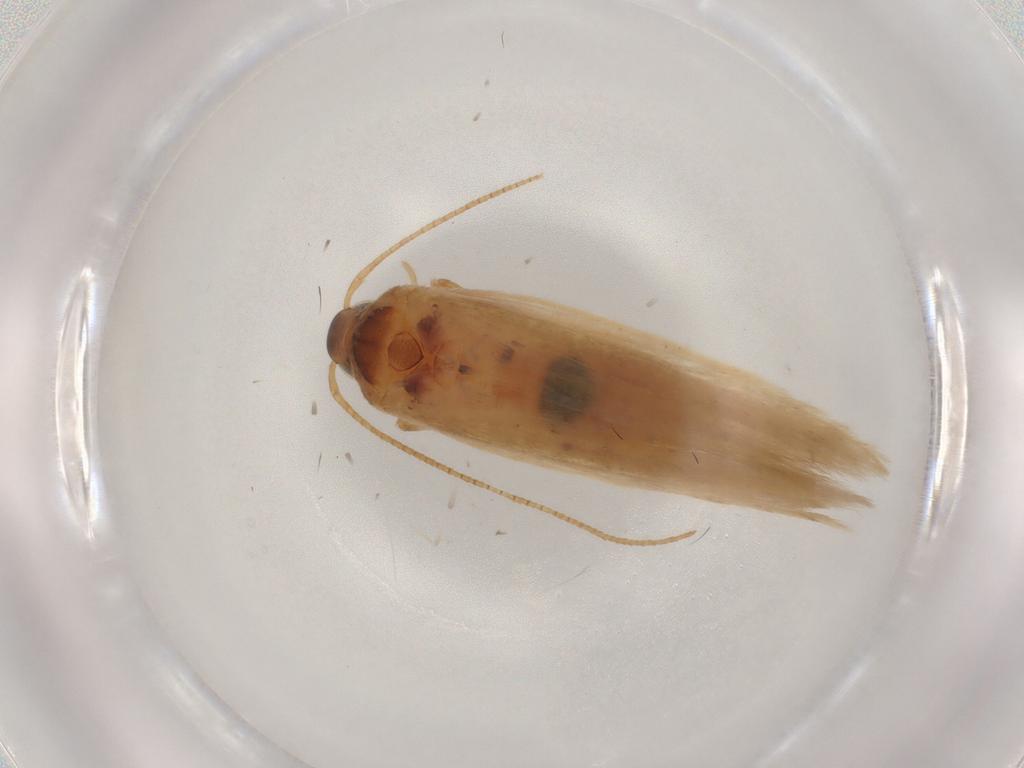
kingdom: Animalia
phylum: Arthropoda
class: Insecta
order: Lepidoptera
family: Gelechiidae
